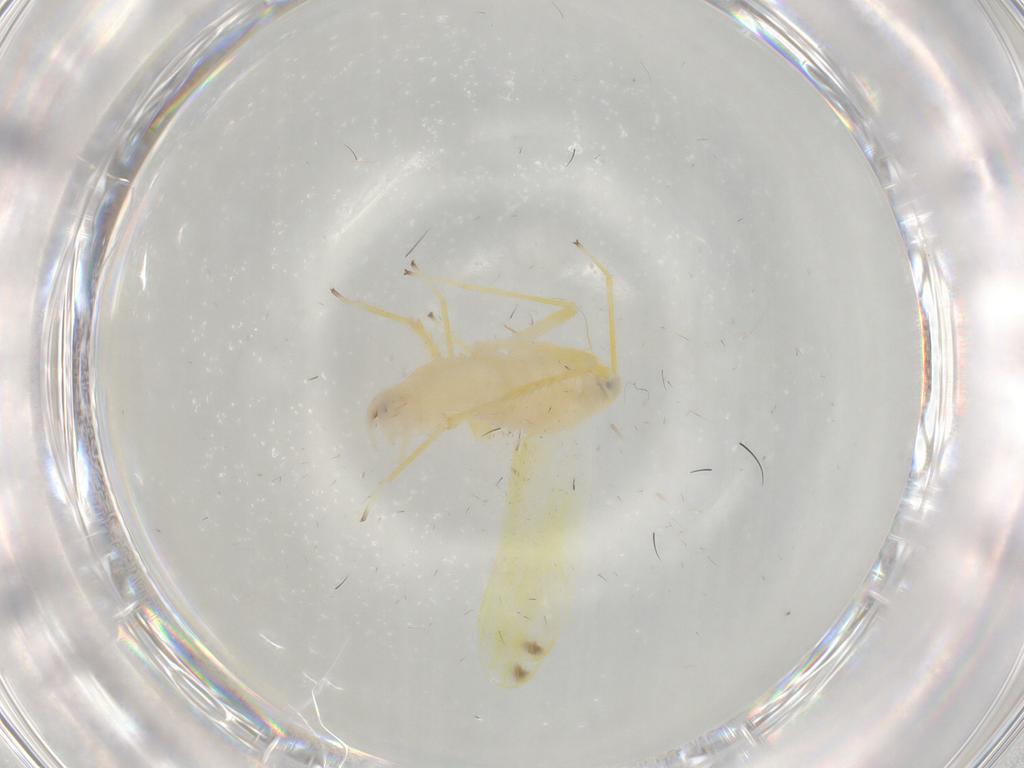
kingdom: Animalia
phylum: Arthropoda
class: Insecta
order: Hemiptera
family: Cicadellidae
